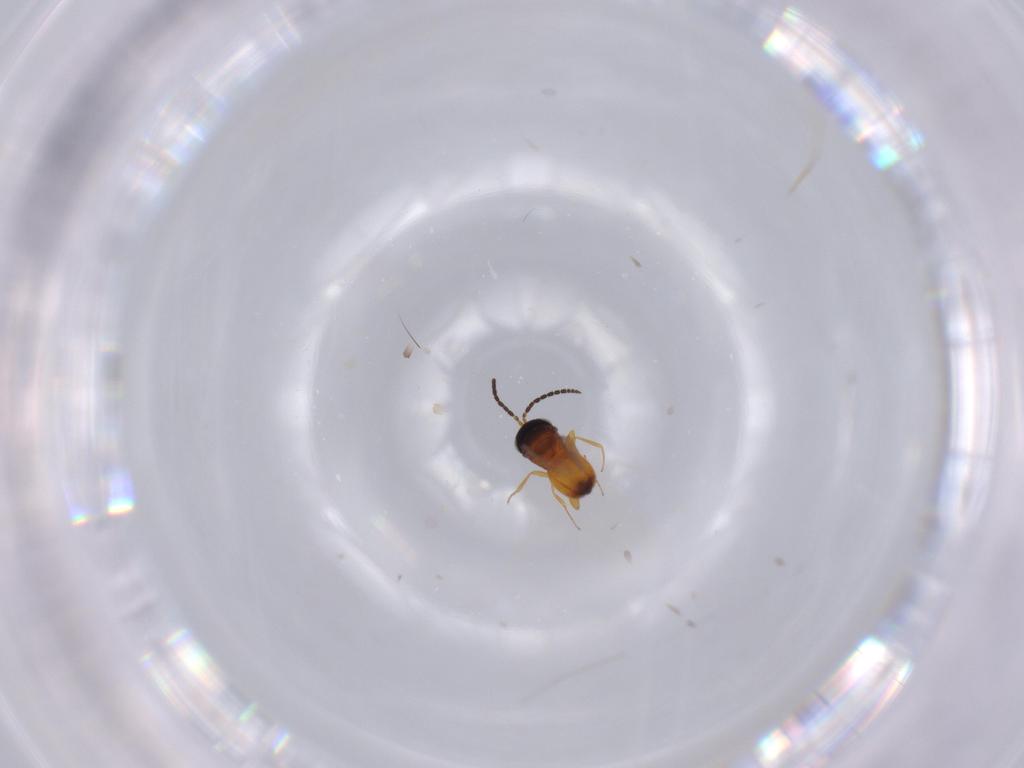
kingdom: Animalia
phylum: Arthropoda
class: Insecta
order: Hymenoptera
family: Scelionidae
